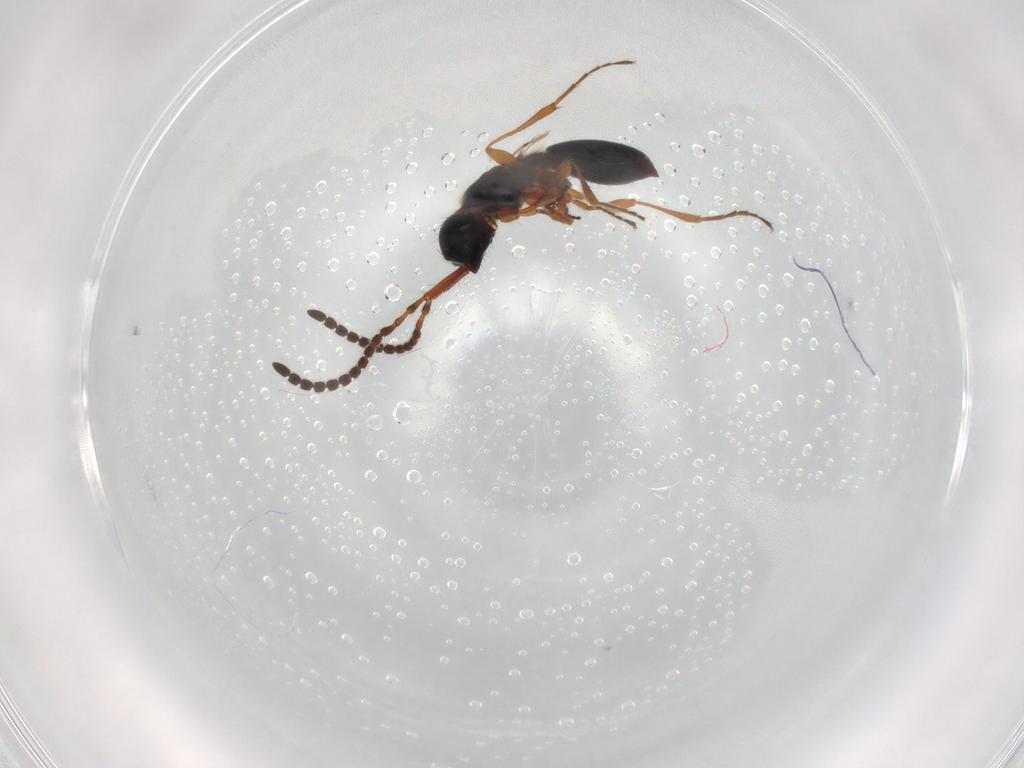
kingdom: Animalia
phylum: Arthropoda
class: Insecta
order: Hymenoptera
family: Diapriidae
